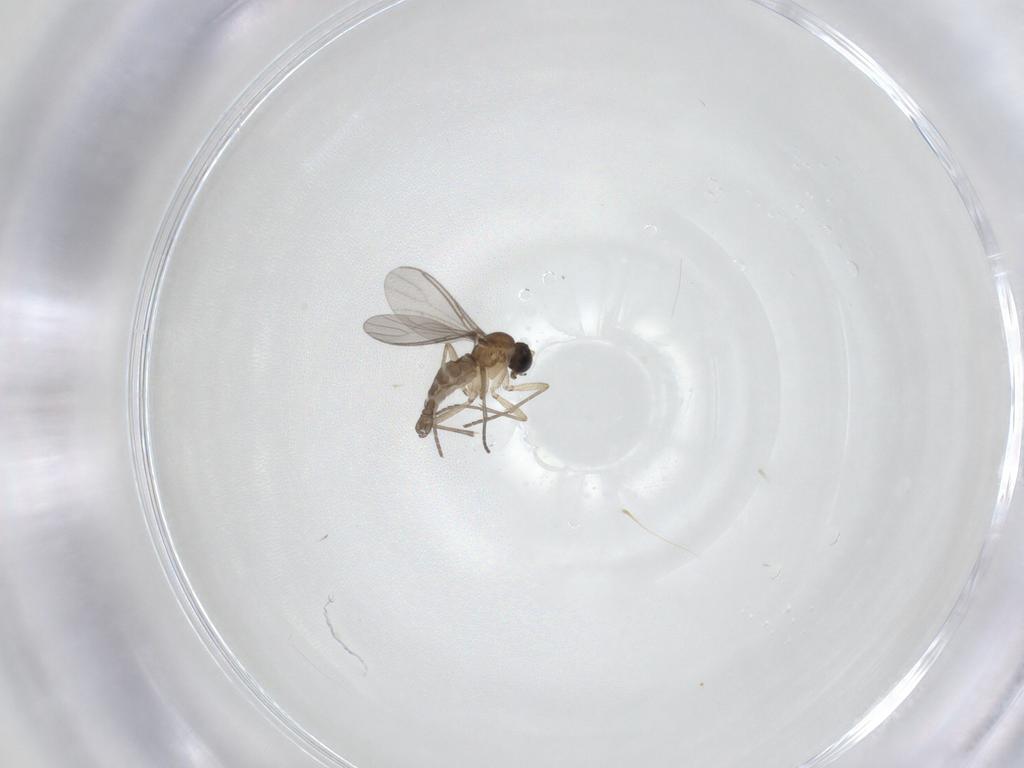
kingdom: Animalia
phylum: Arthropoda
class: Insecta
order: Diptera
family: Sciaridae
